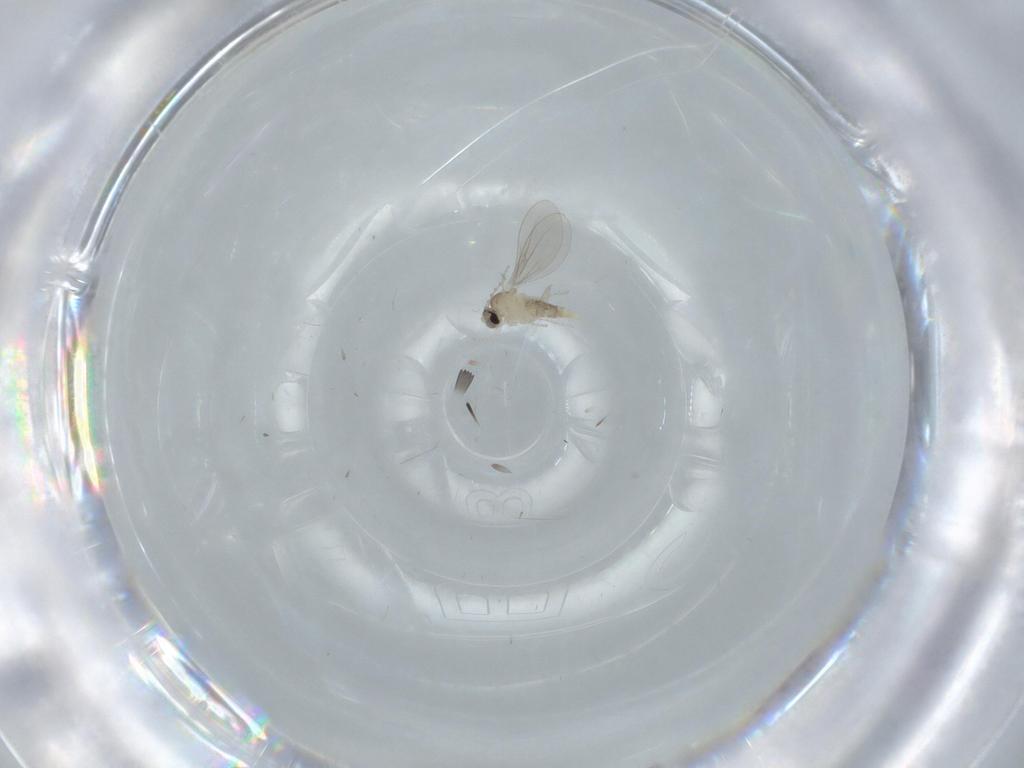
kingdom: Animalia
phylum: Arthropoda
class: Insecta
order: Diptera
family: Cecidomyiidae
